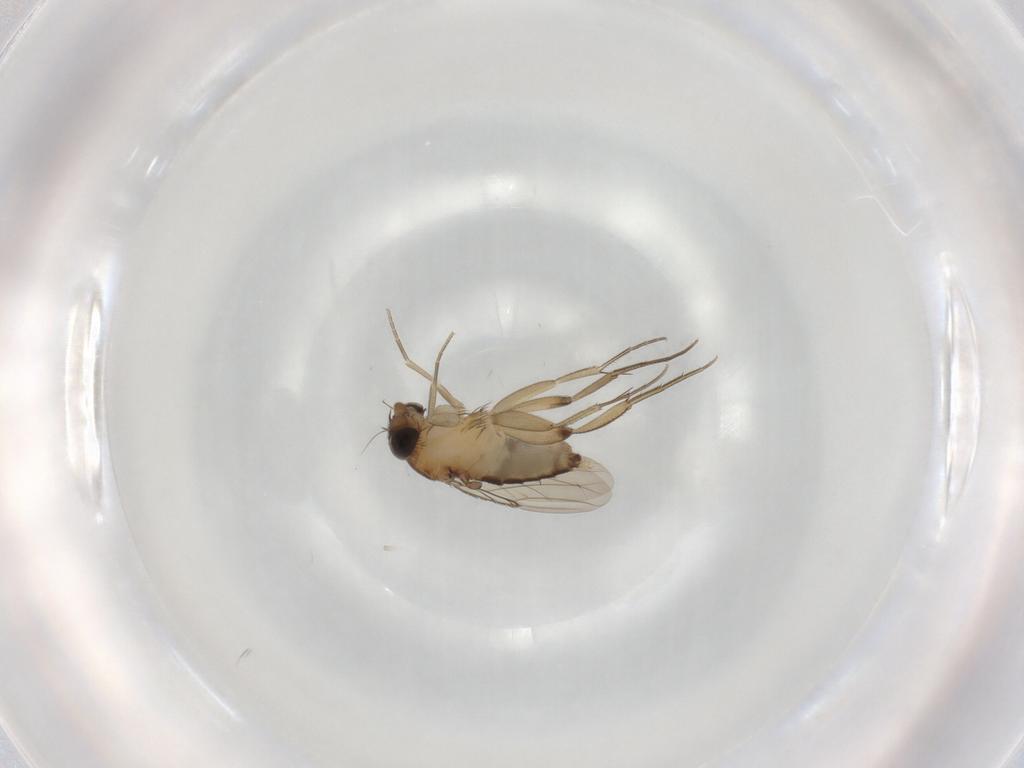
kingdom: Animalia
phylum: Arthropoda
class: Insecta
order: Diptera
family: Phoridae
